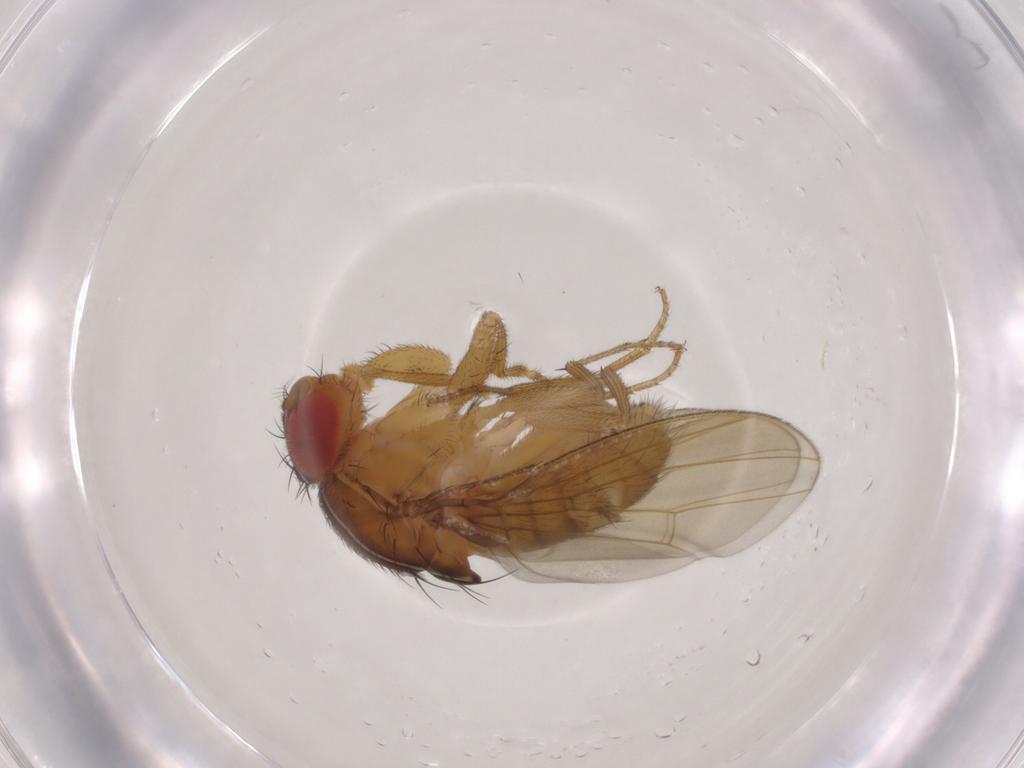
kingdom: Animalia
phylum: Arthropoda
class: Insecta
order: Diptera
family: Drosophilidae
